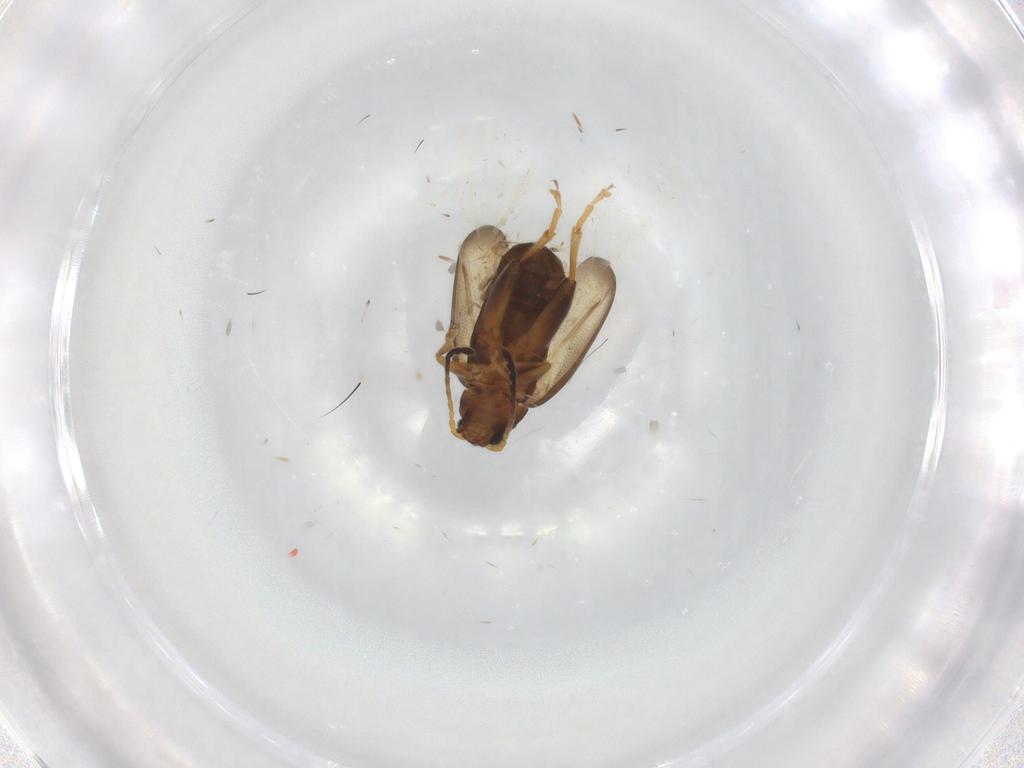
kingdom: Animalia
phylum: Arthropoda
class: Insecta
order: Coleoptera
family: Chrysomelidae
